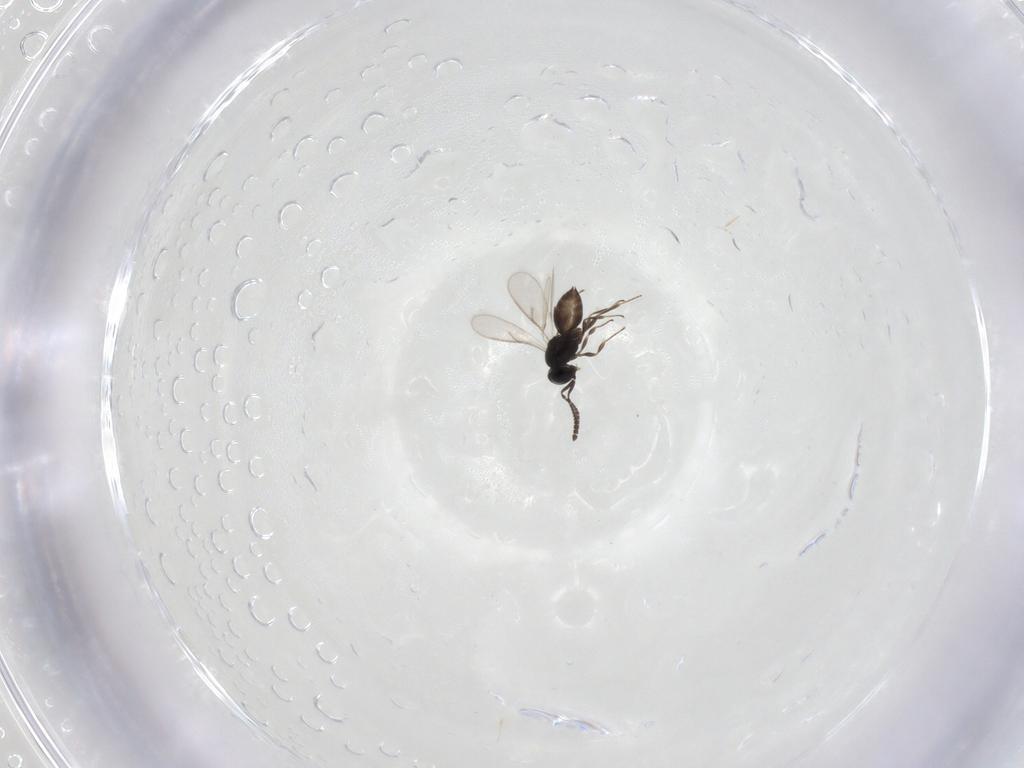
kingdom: Animalia
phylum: Arthropoda
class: Insecta
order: Hymenoptera
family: Scelionidae
